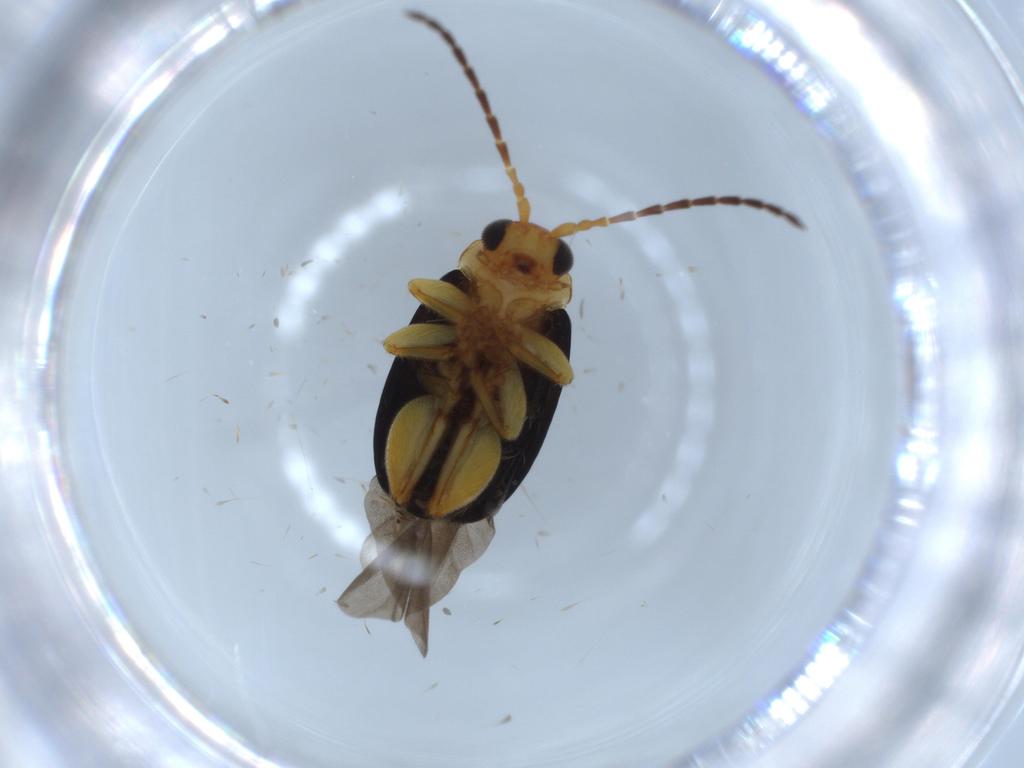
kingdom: Animalia
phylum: Arthropoda
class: Insecta
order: Coleoptera
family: Chrysomelidae
